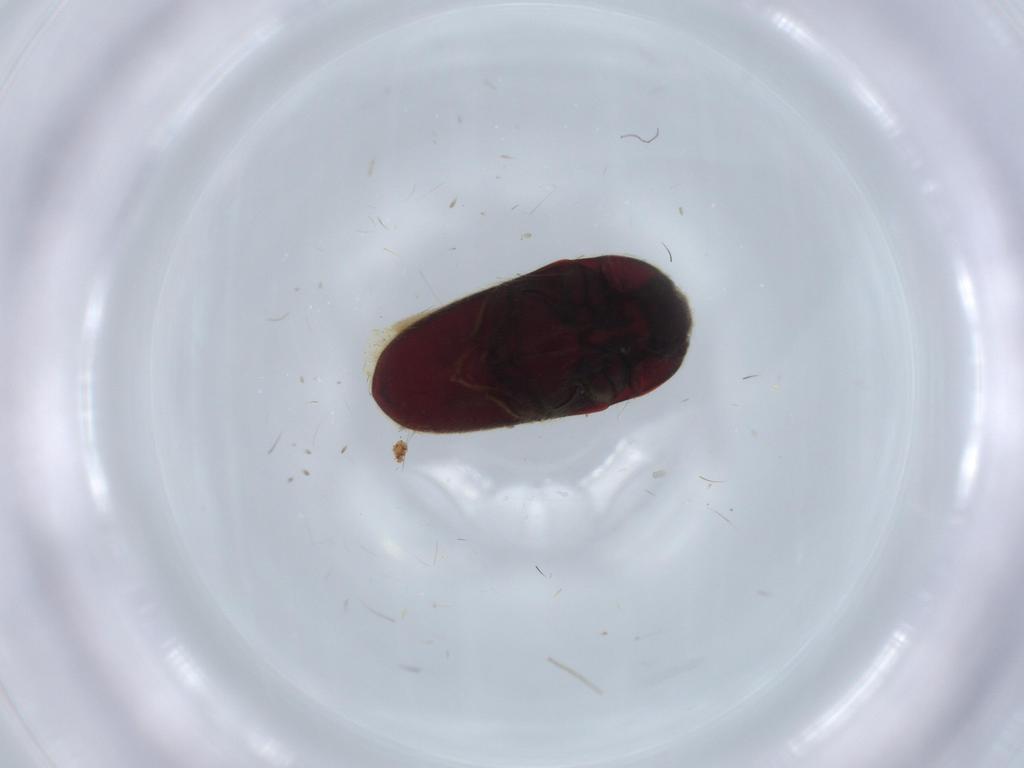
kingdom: Animalia
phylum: Arthropoda
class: Insecta
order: Coleoptera
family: Throscidae
